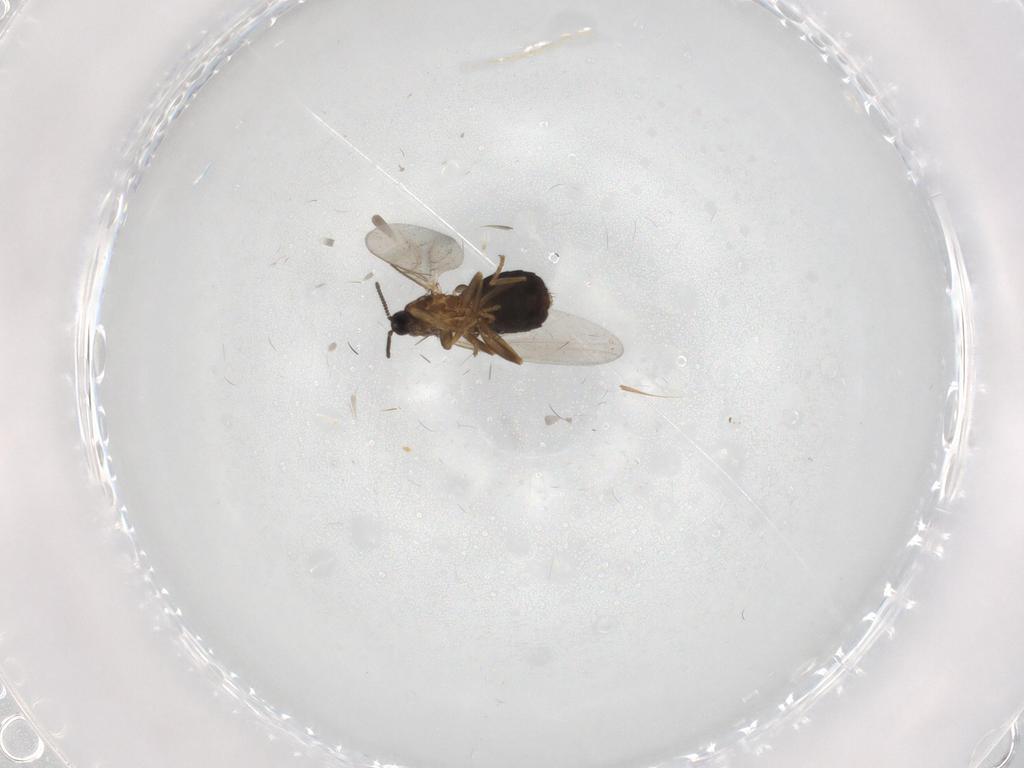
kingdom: Animalia
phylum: Arthropoda
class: Insecta
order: Diptera
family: Scatopsidae
